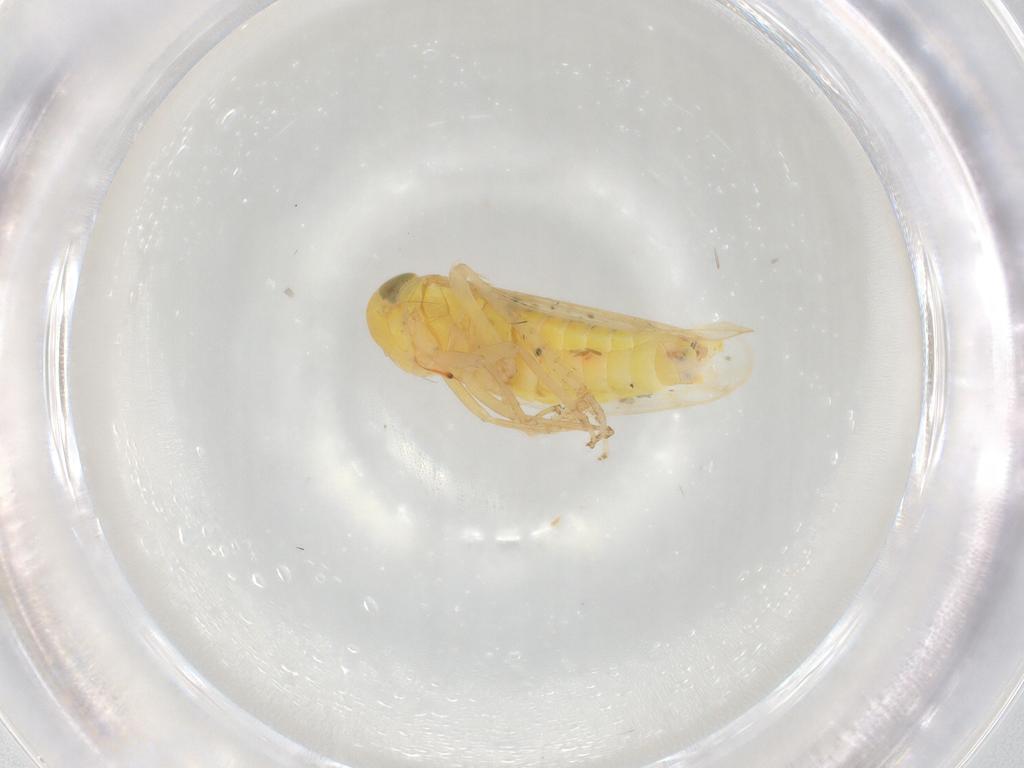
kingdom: Animalia
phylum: Arthropoda
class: Insecta
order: Hemiptera
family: Cicadellidae
